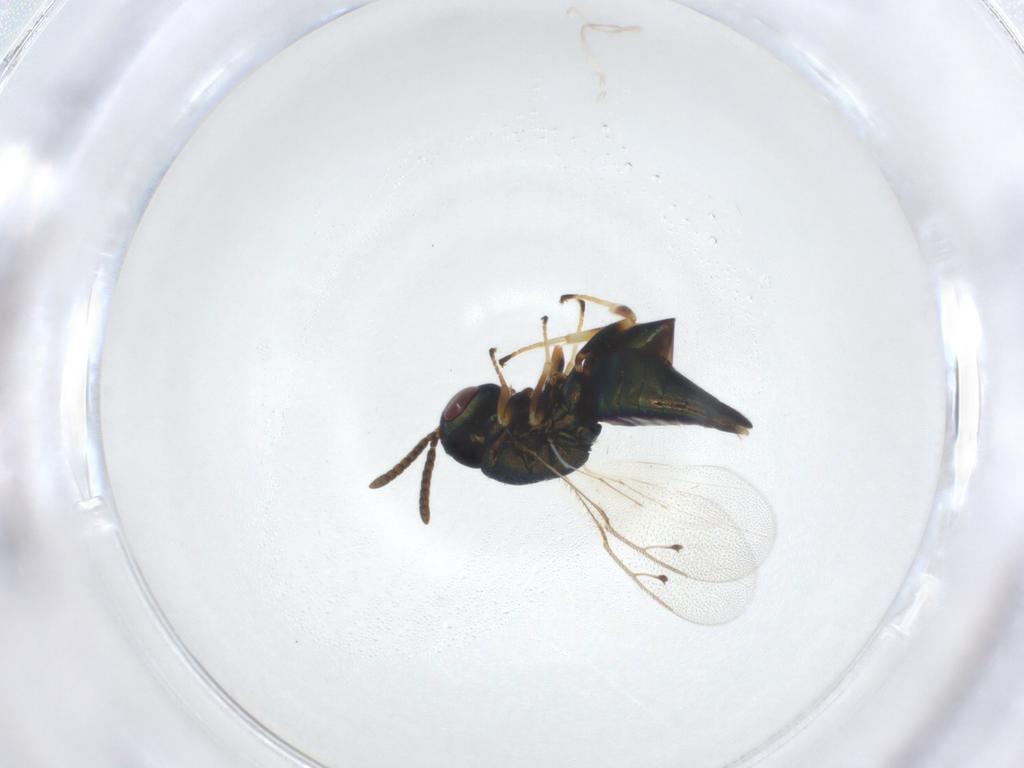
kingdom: Animalia
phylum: Arthropoda
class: Insecta
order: Hymenoptera
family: Pteromalidae
